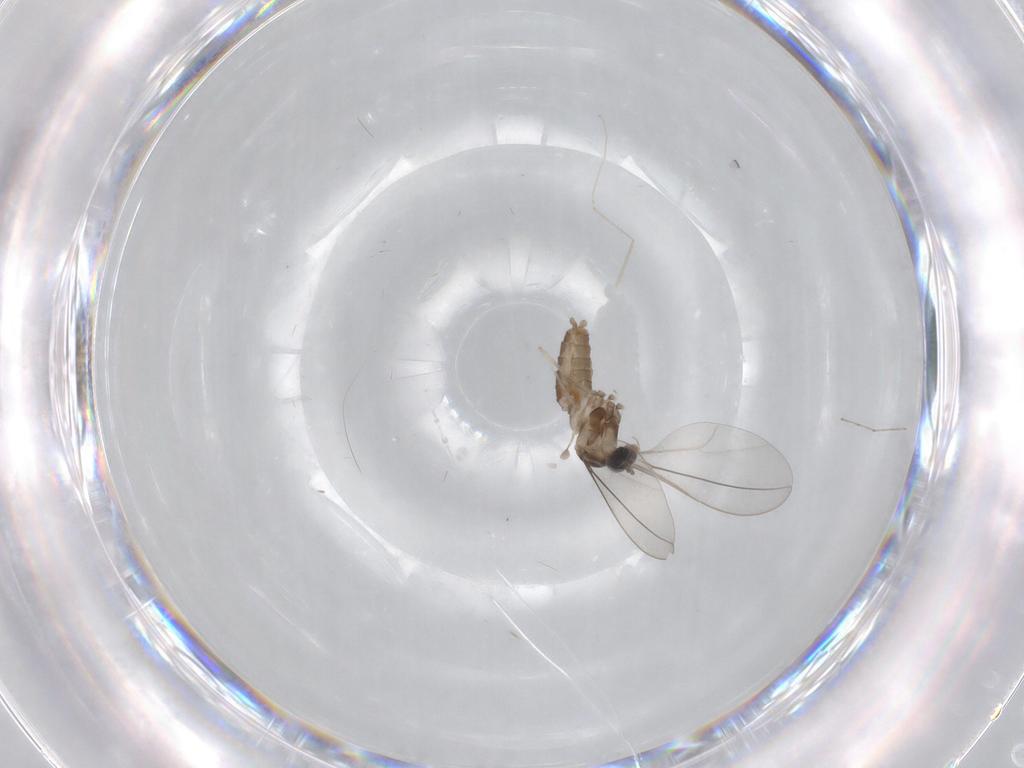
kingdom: Animalia
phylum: Arthropoda
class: Insecta
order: Diptera
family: Cecidomyiidae
